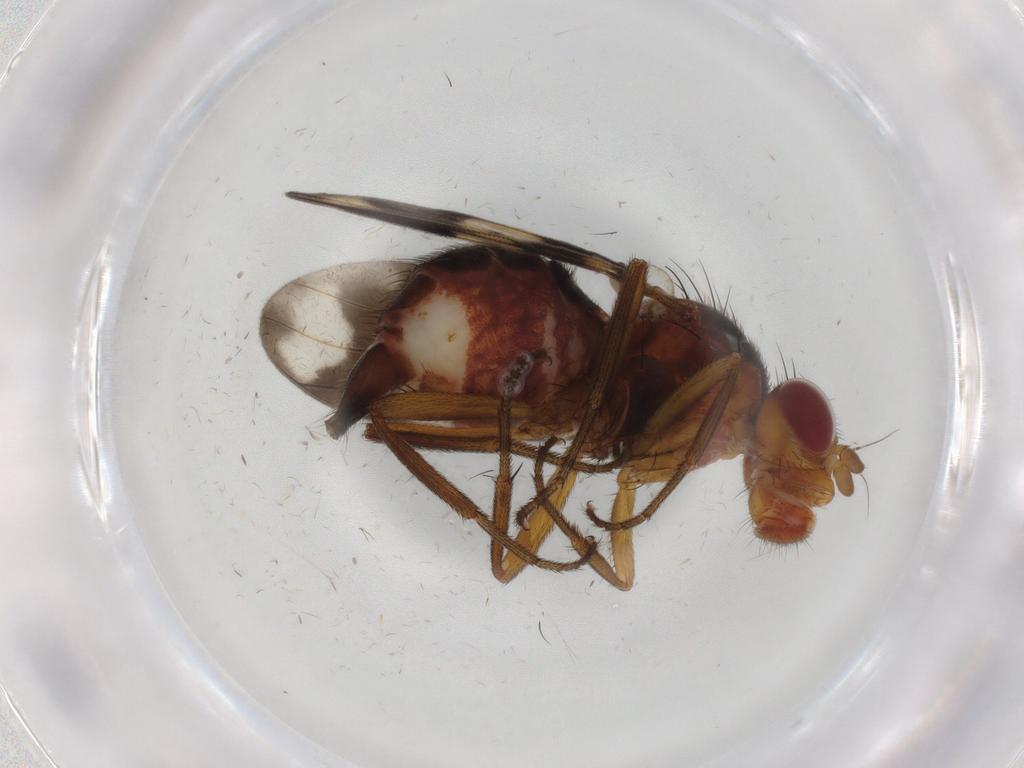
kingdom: Animalia
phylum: Arthropoda
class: Insecta
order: Diptera
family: Richardiidae
